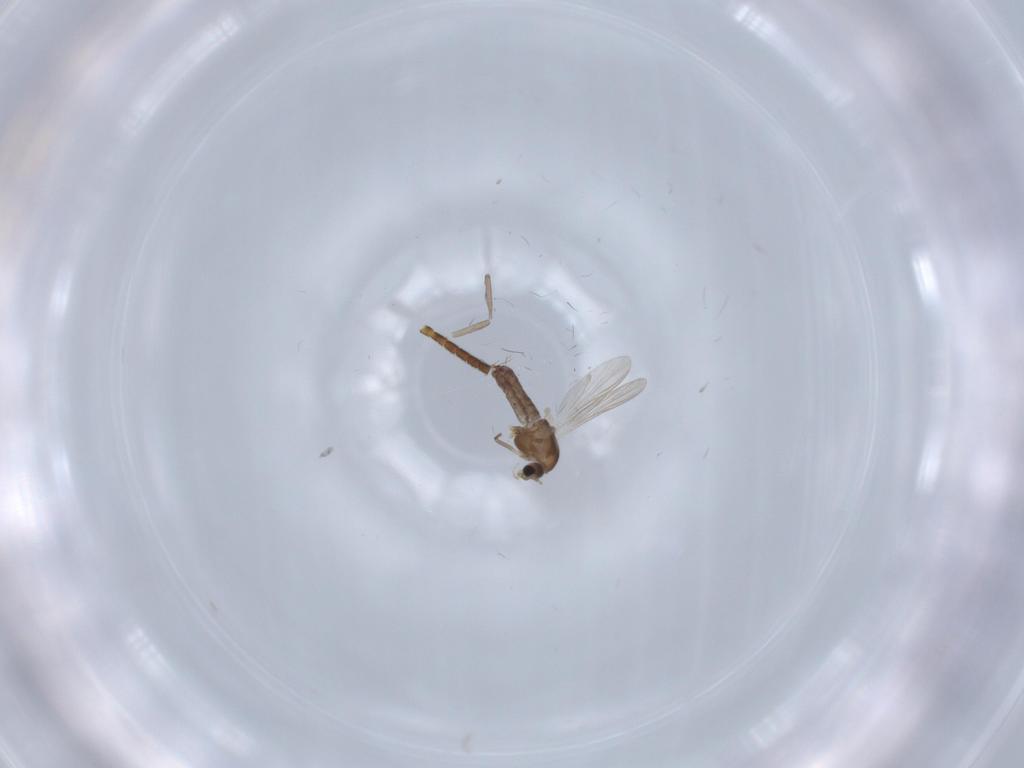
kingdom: Animalia
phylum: Arthropoda
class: Insecta
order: Diptera
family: Chironomidae
